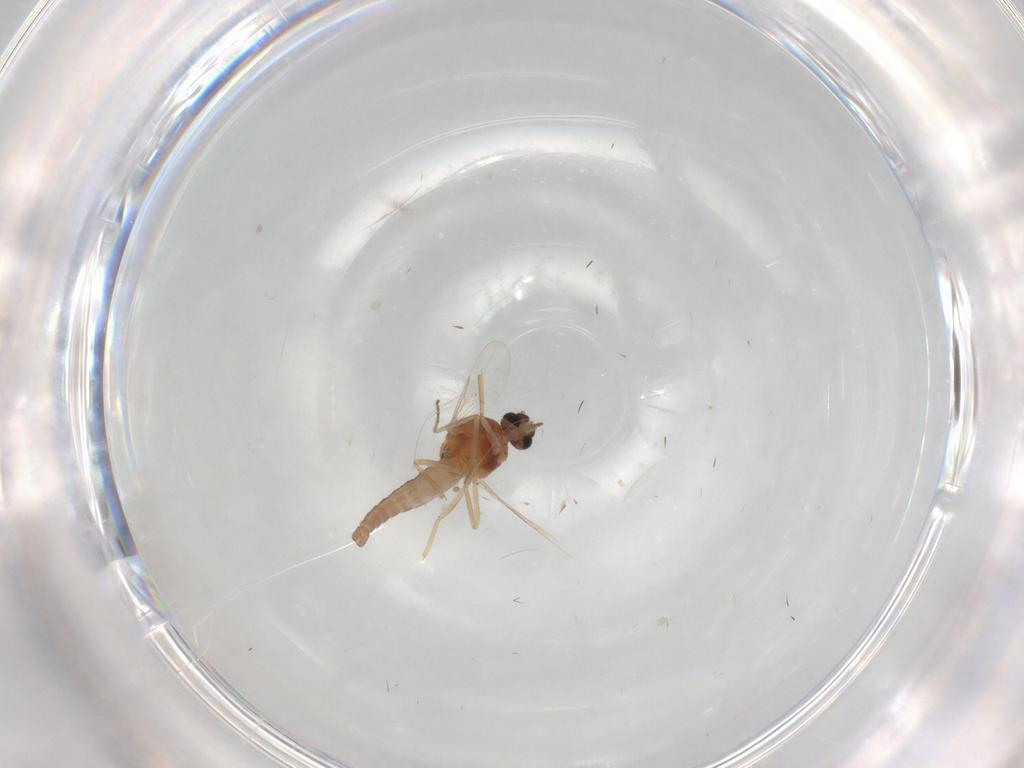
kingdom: Animalia
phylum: Arthropoda
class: Insecta
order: Diptera
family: Ceratopogonidae
